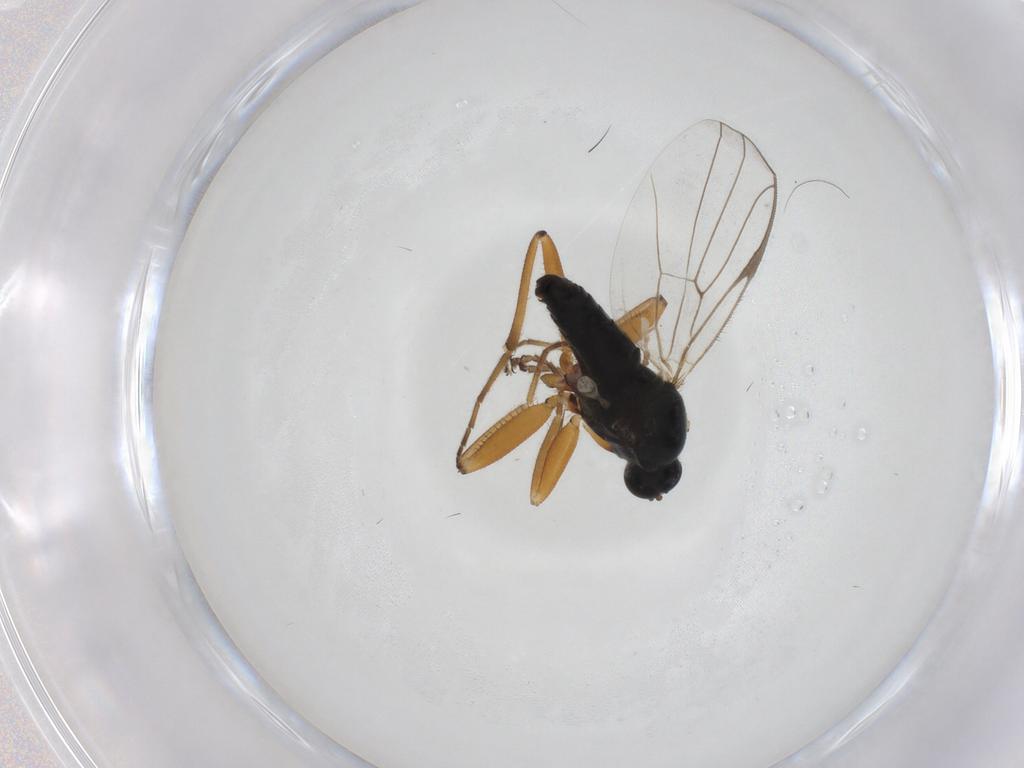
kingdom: Animalia
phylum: Arthropoda
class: Insecta
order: Diptera
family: Hybotidae
